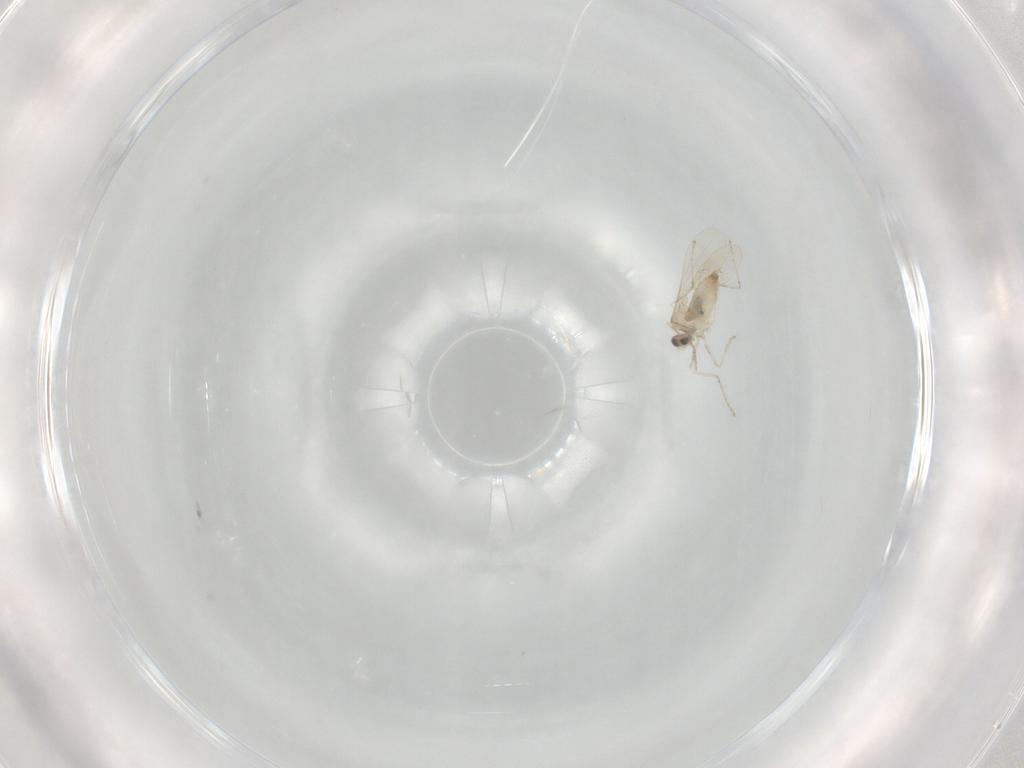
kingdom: Animalia
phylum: Arthropoda
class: Insecta
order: Diptera
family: Cecidomyiidae
